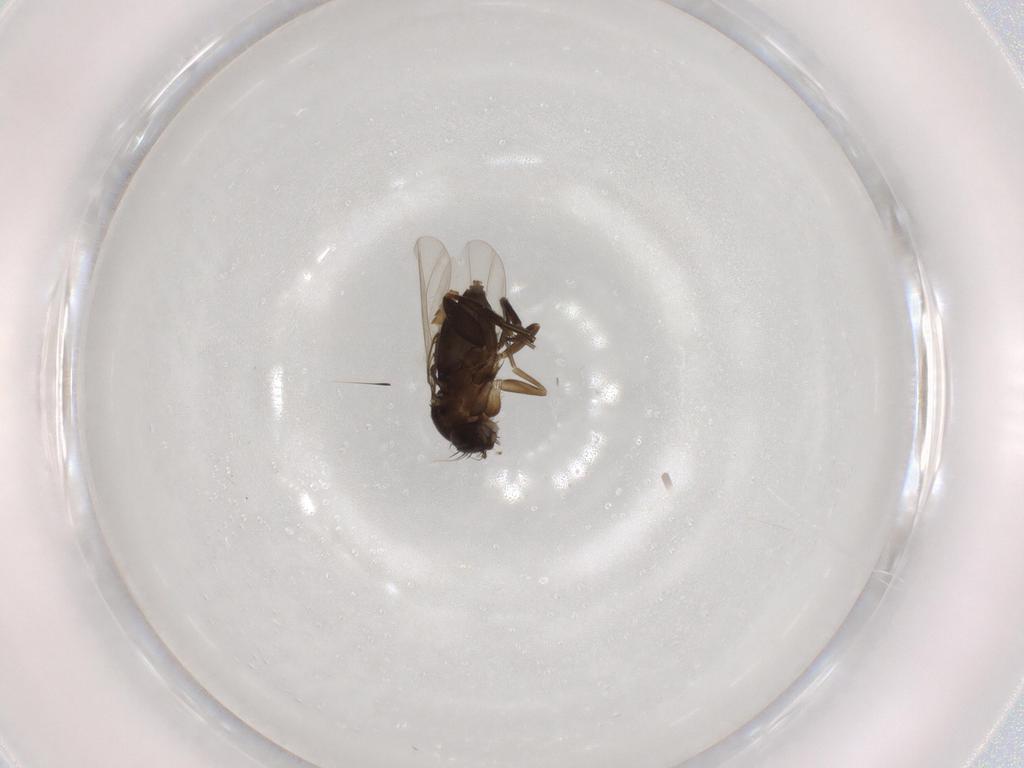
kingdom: Animalia
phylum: Arthropoda
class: Insecta
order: Diptera
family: Phoridae
